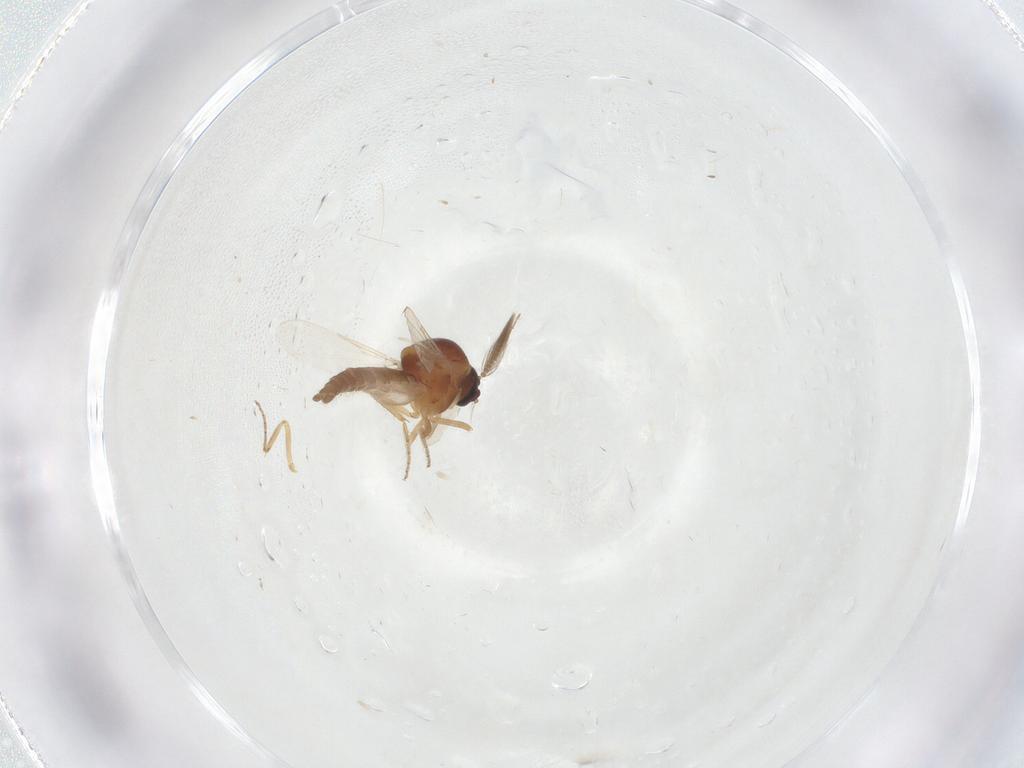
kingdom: Animalia
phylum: Arthropoda
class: Insecta
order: Diptera
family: Ceratopogonidae
